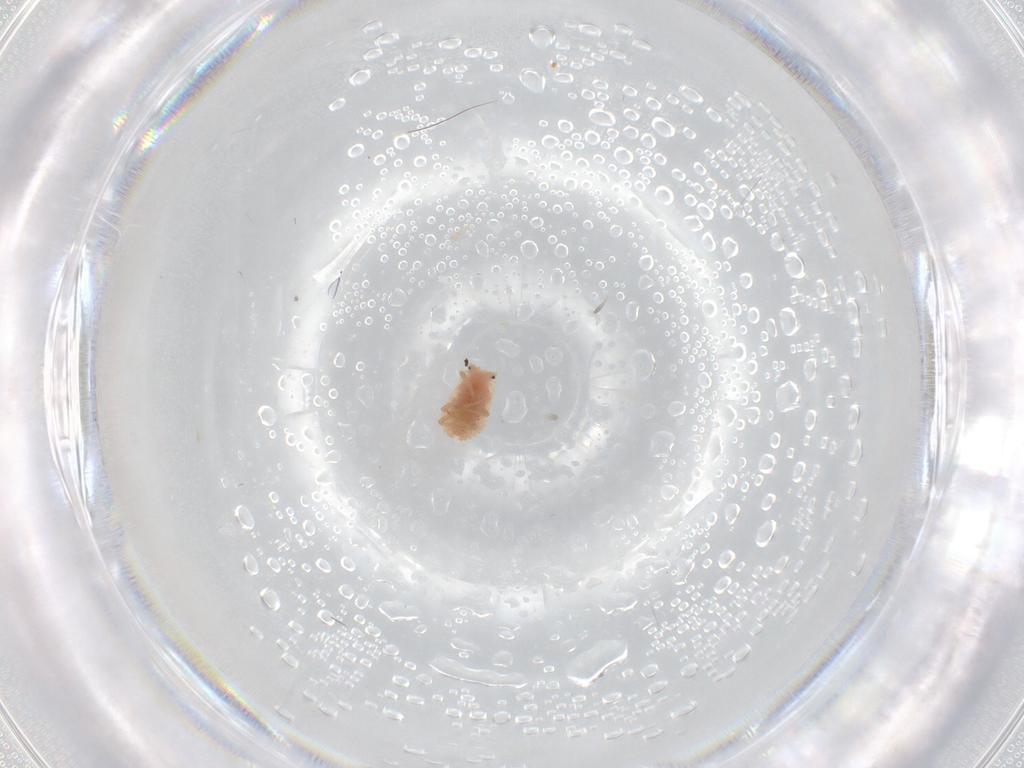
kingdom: Animalia
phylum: Arthropoda
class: Insecta
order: Hemiptera
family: Coccoidea_incertae_sedis
